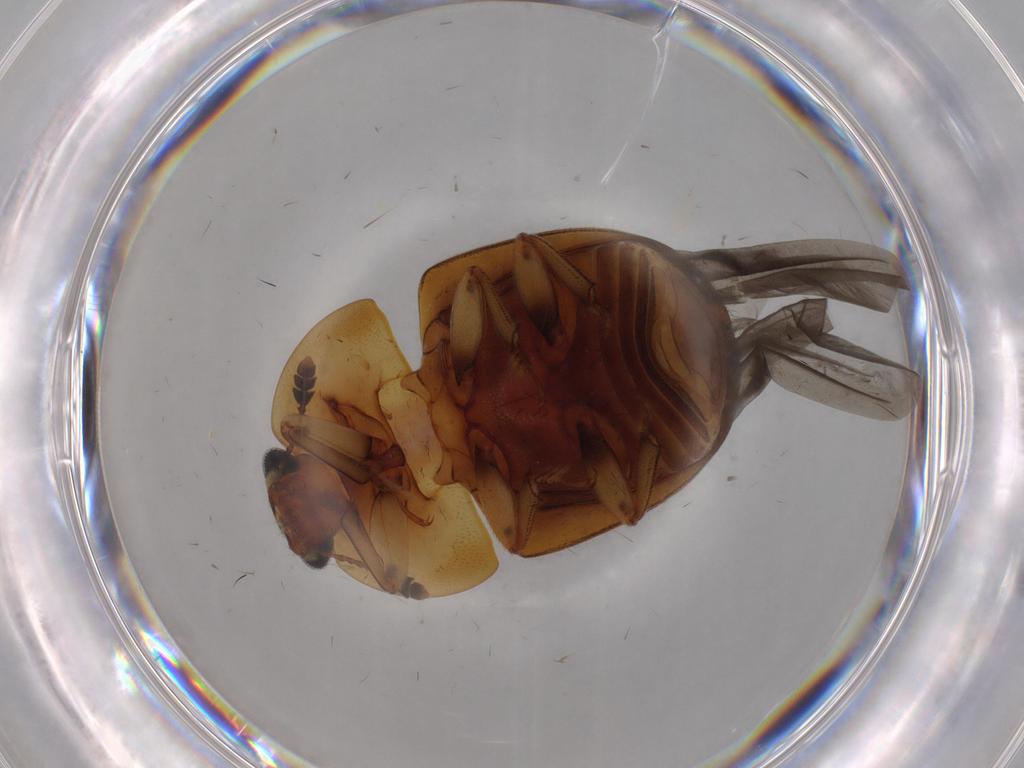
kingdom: Animalia
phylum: Arthropoda
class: Insecta
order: Coleoptera
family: Nitidulidae
